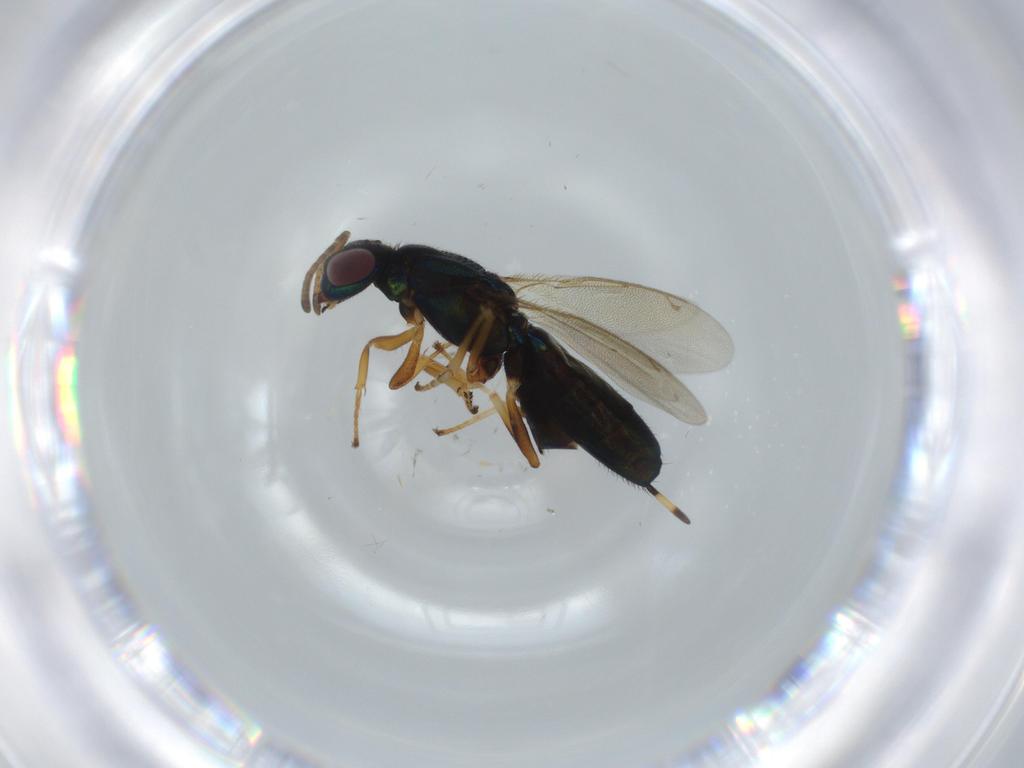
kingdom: Animalia
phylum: Arthropoda
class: Insecta
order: Hymenoptera
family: Eupelmidae
